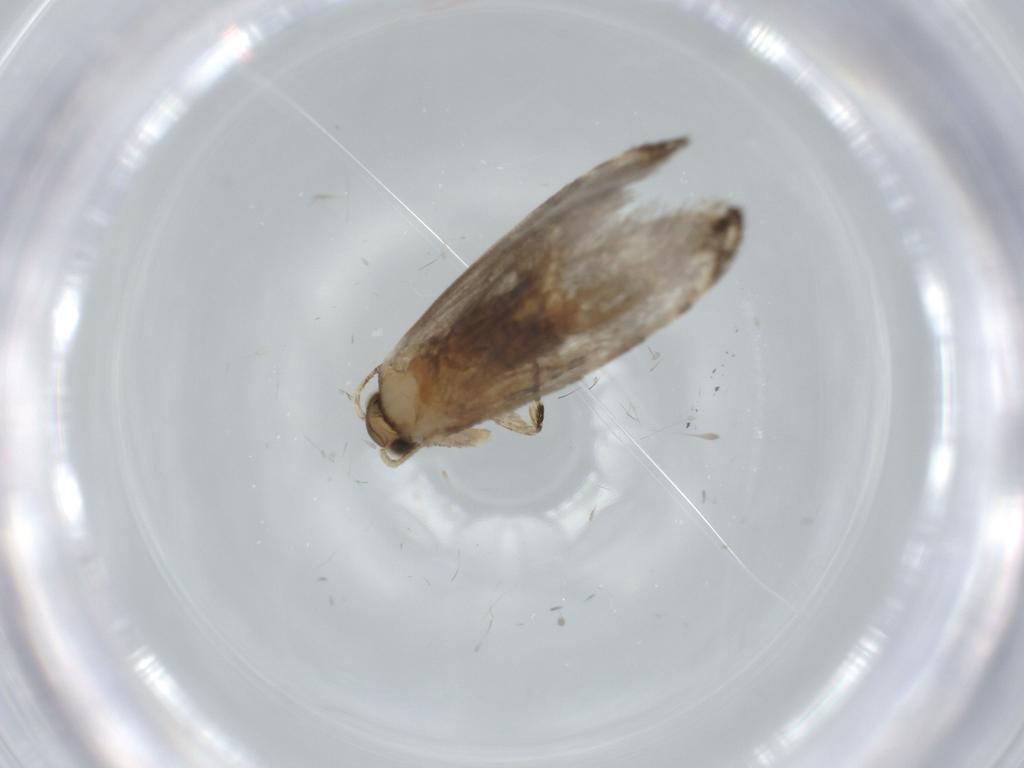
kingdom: Animalia
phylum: Arthropoda
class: Insecta
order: Lepidoptera
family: Tineidae
